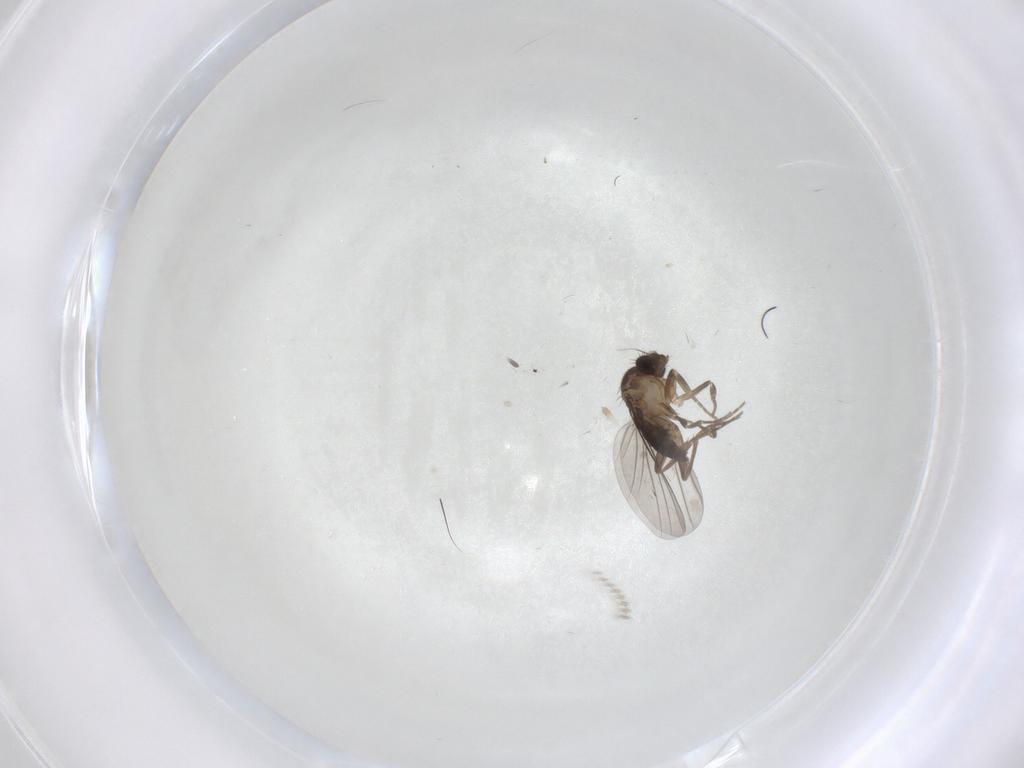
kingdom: Animalia
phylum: Arthropoda
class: Insecta
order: Diptera
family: Cecidomyiidae
